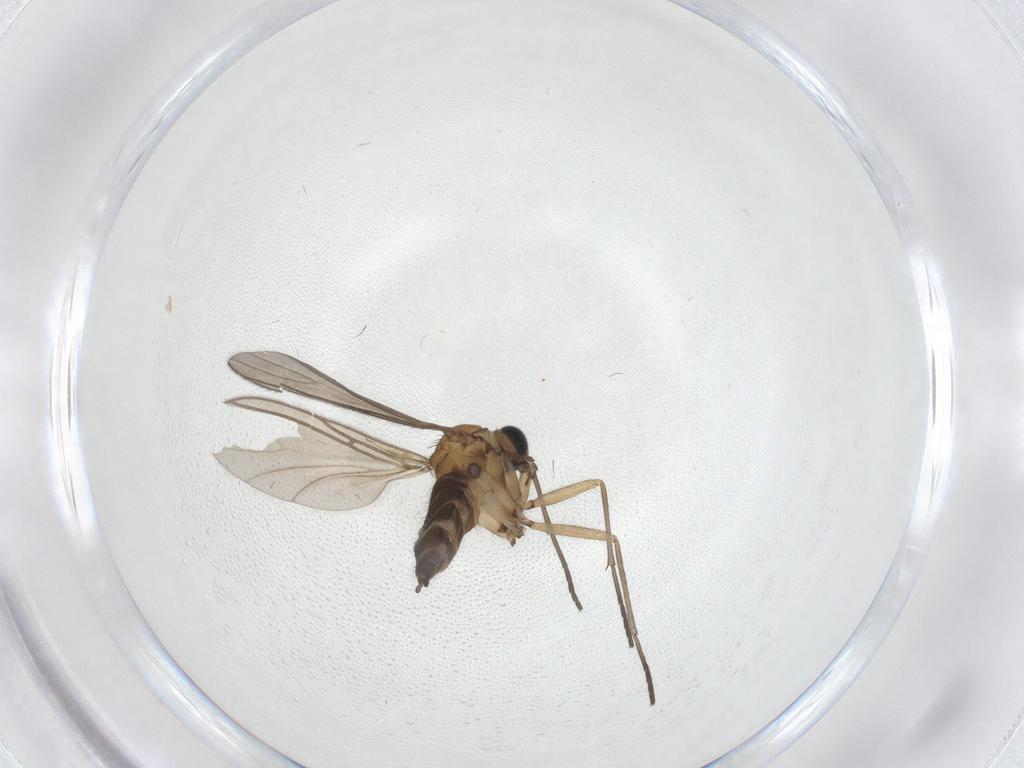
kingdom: Animalia
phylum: Arthropoda
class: Insecta
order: Diptera
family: Sciaridae
